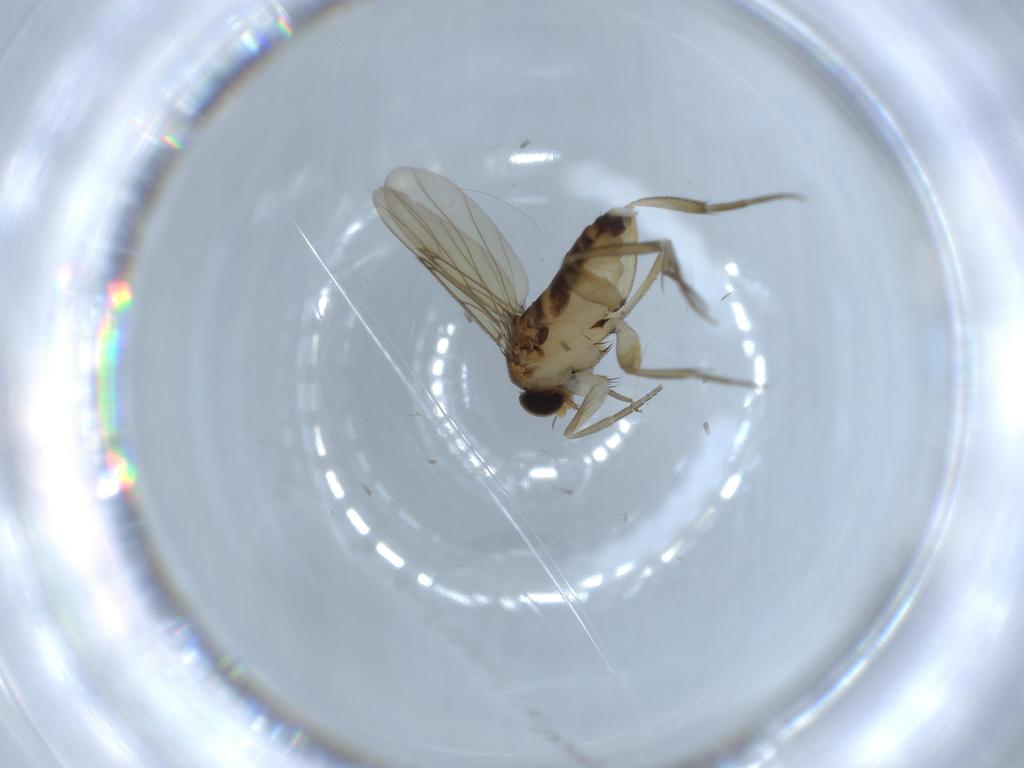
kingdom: Animalia
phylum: Arthropoda
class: Insecta
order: Diptera
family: Phoridae
